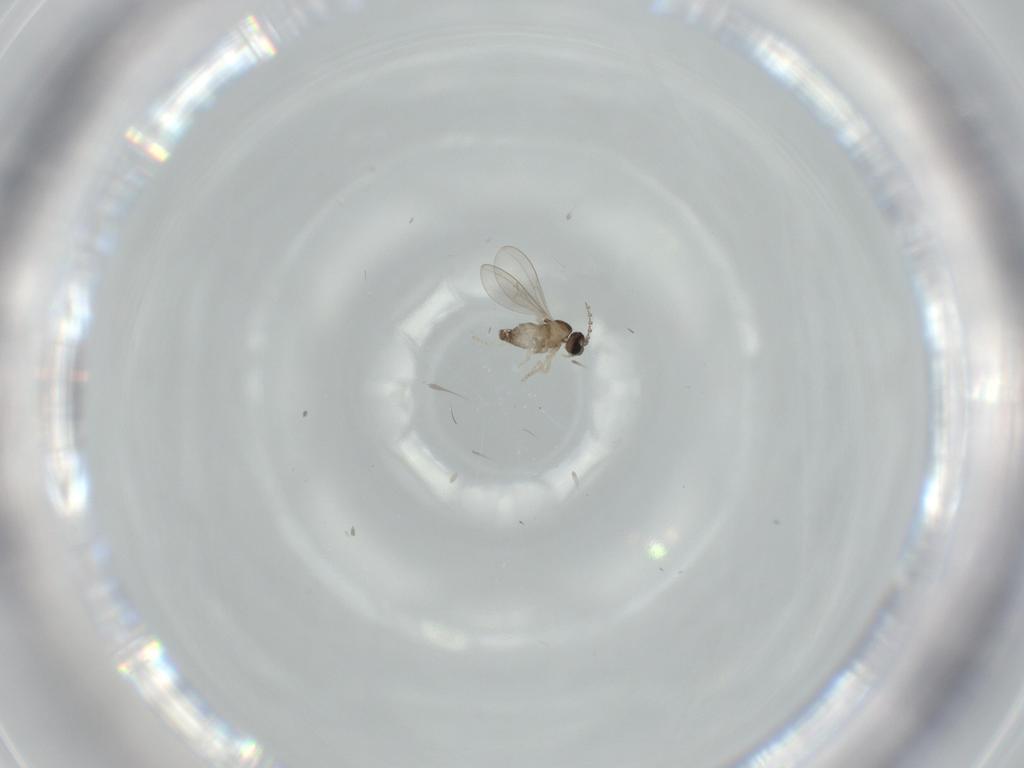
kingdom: Animalia
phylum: Arthropoda
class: Insecta
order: Diptera
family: Cecidomyiidae
